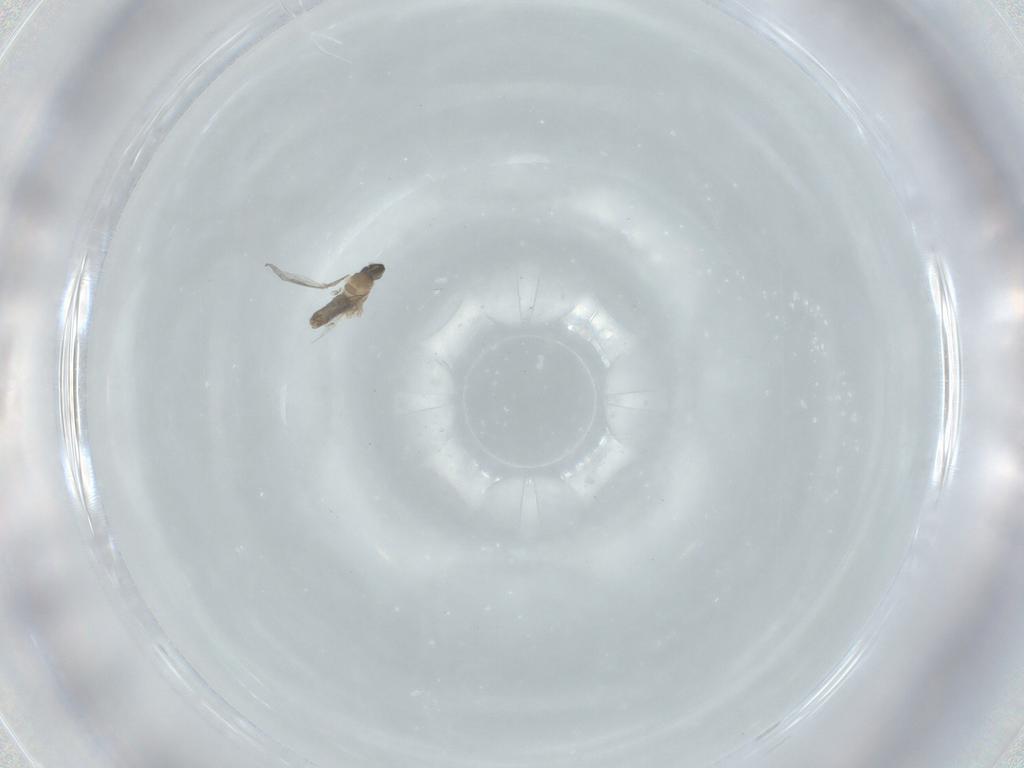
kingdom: Animalia
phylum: Arthropoda
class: Insecta
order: Diptera
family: Cecidomyiidae
